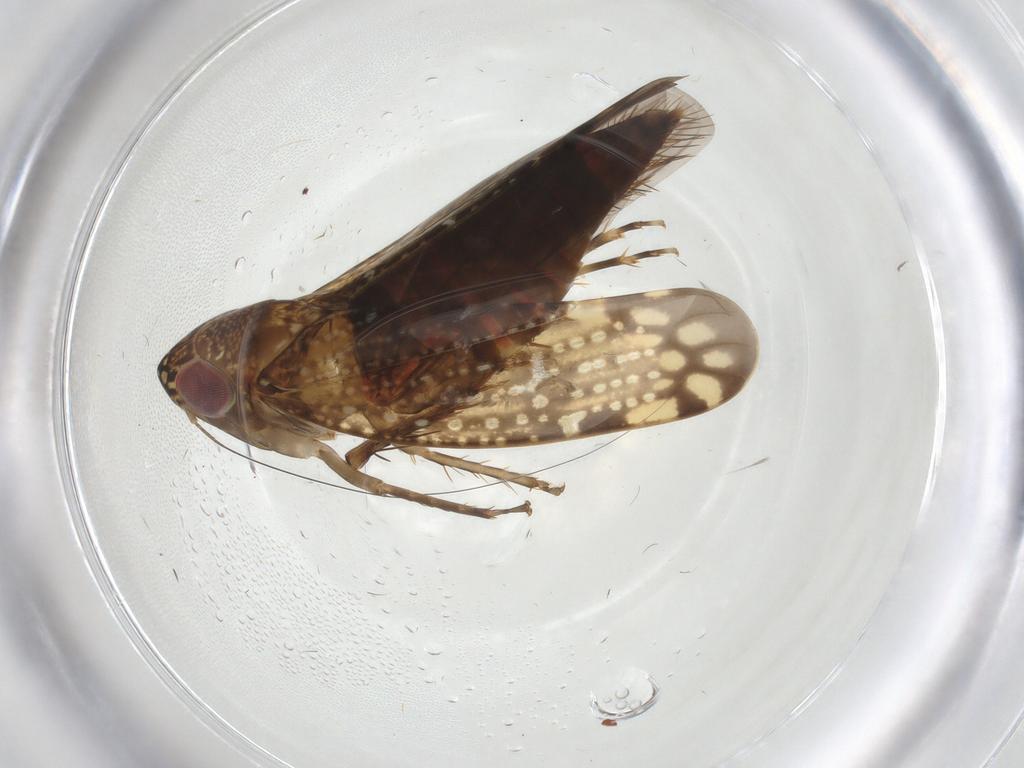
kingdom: Animalia
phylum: Arthropoda
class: Insecta
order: Hemiptera
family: Cicadellidae
